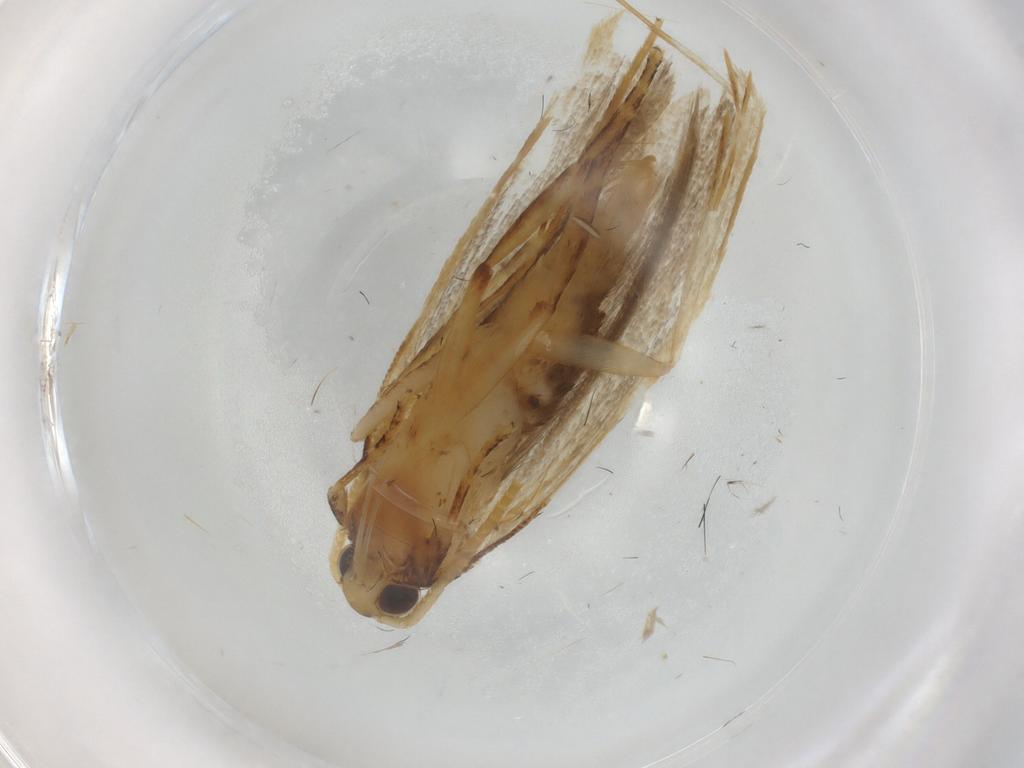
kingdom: Animalia
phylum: Arthropoda
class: Insecta
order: Lepidoptera
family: Lecithoceridae
